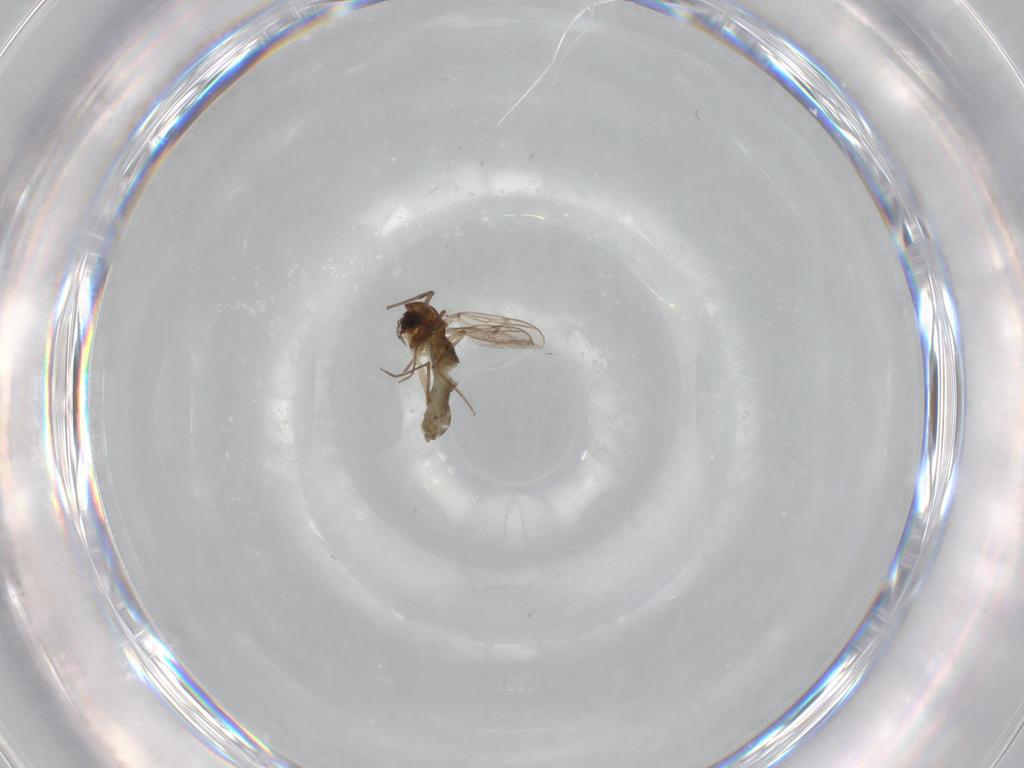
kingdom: Animalia
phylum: Arthropoda
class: Insecta
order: Diptera
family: Chironomidae
